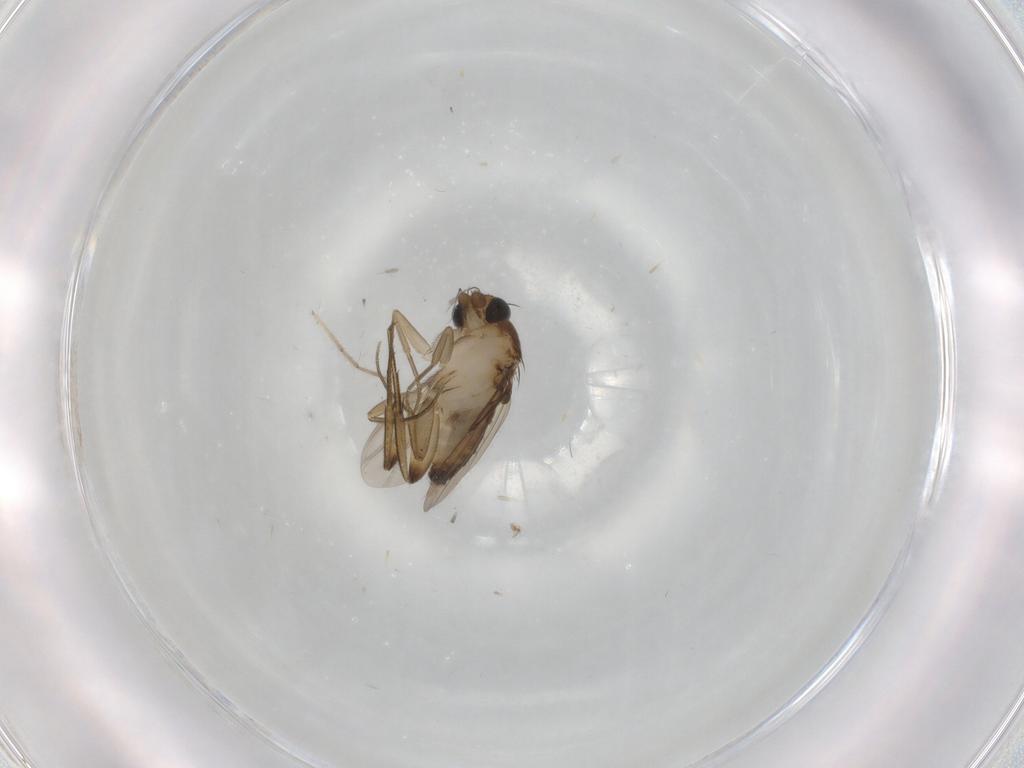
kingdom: Animalia
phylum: Arthropoda
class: Insecta
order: Diptera
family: Phoridae
